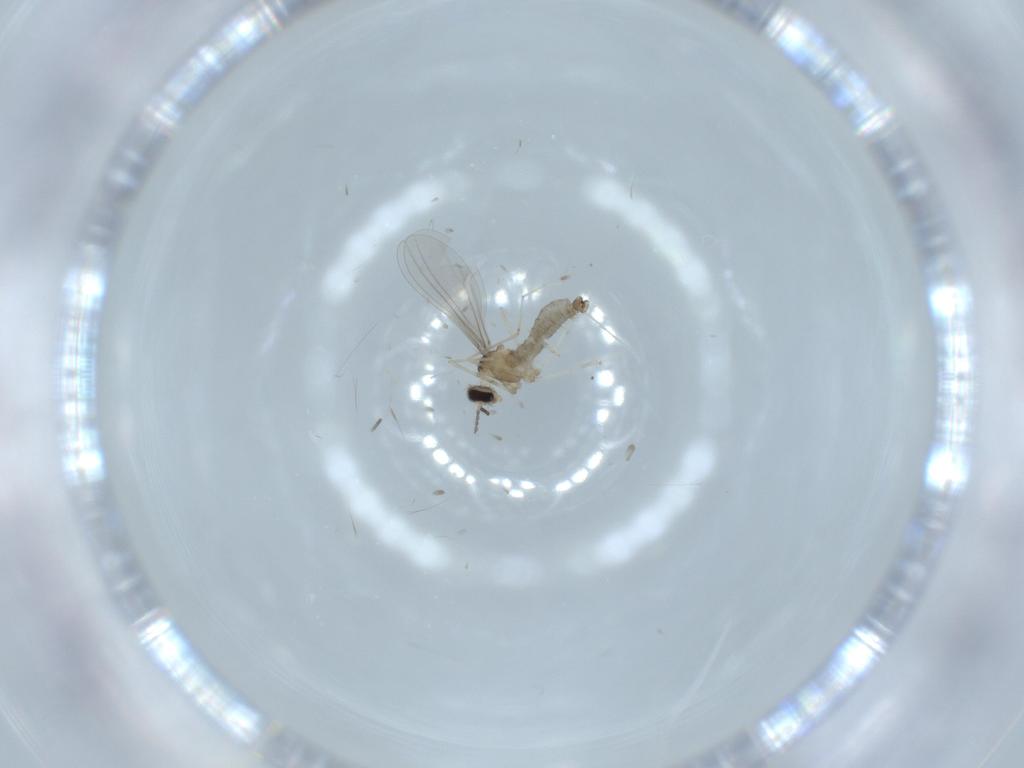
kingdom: Animalia
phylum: Arthropoda
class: Insecta
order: Diptera
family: Cecidomyiidae
